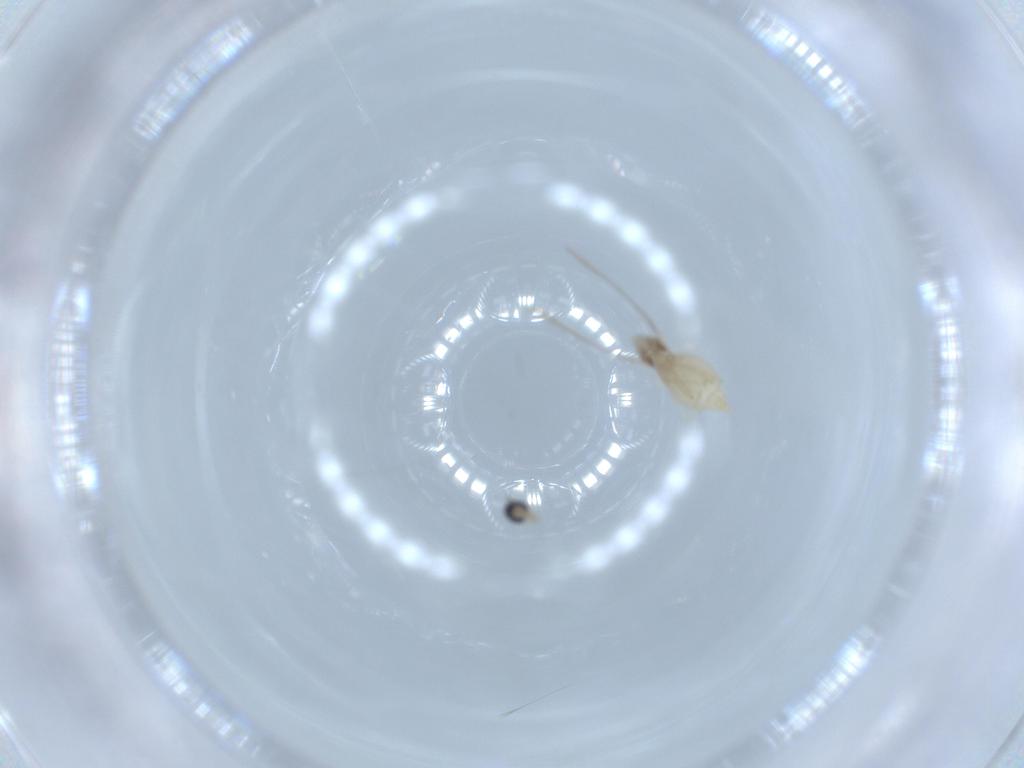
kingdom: Animalia
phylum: Arthropoda
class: Insecta
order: Diptera
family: Cecidomyiidae
